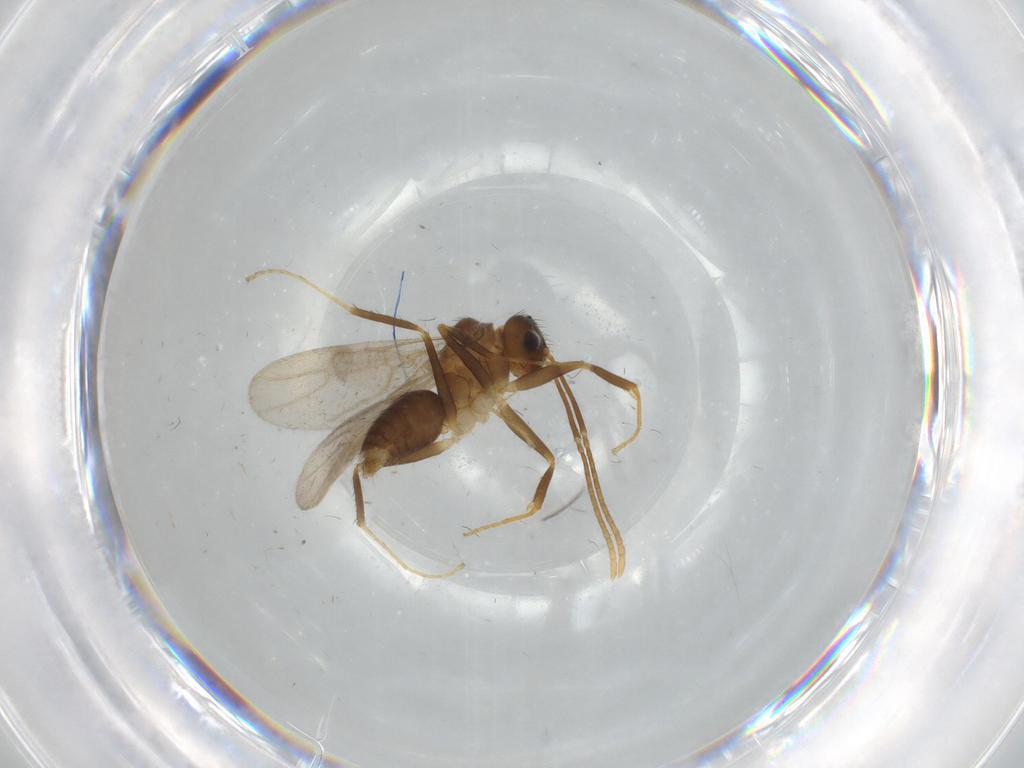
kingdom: Animalia
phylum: Arthropoda
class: Insecta
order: Hymenoptera
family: Formicidae
